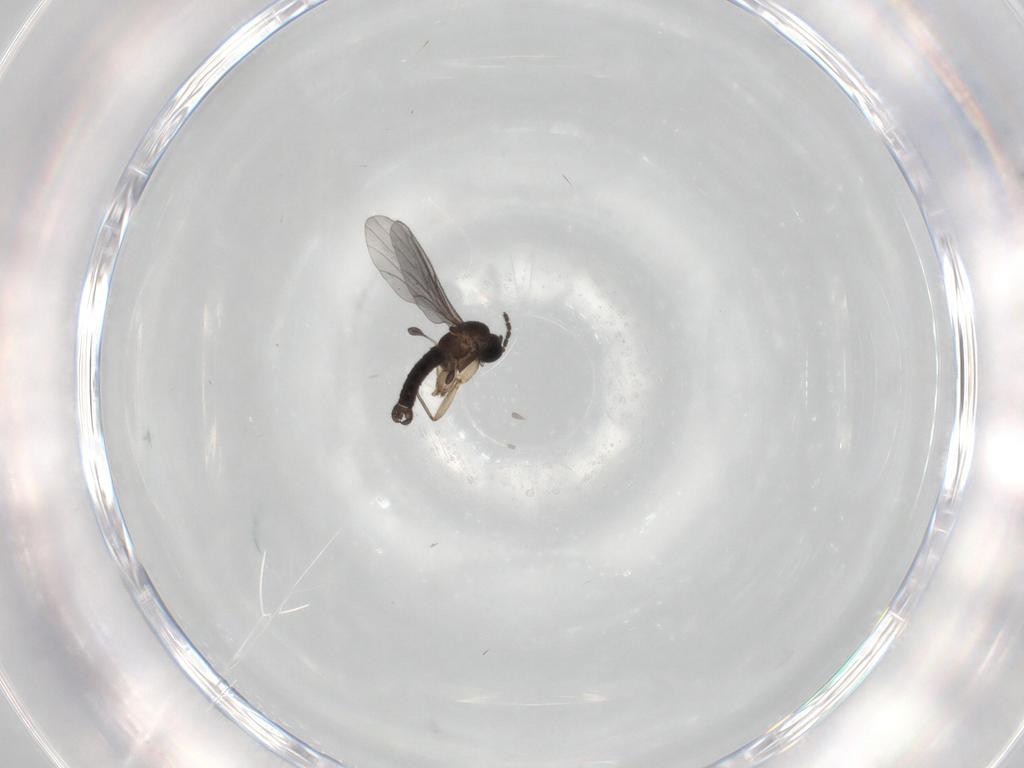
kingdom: Animalia
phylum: Arthropoda
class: Insecta
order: Diptera
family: Sciaridae
